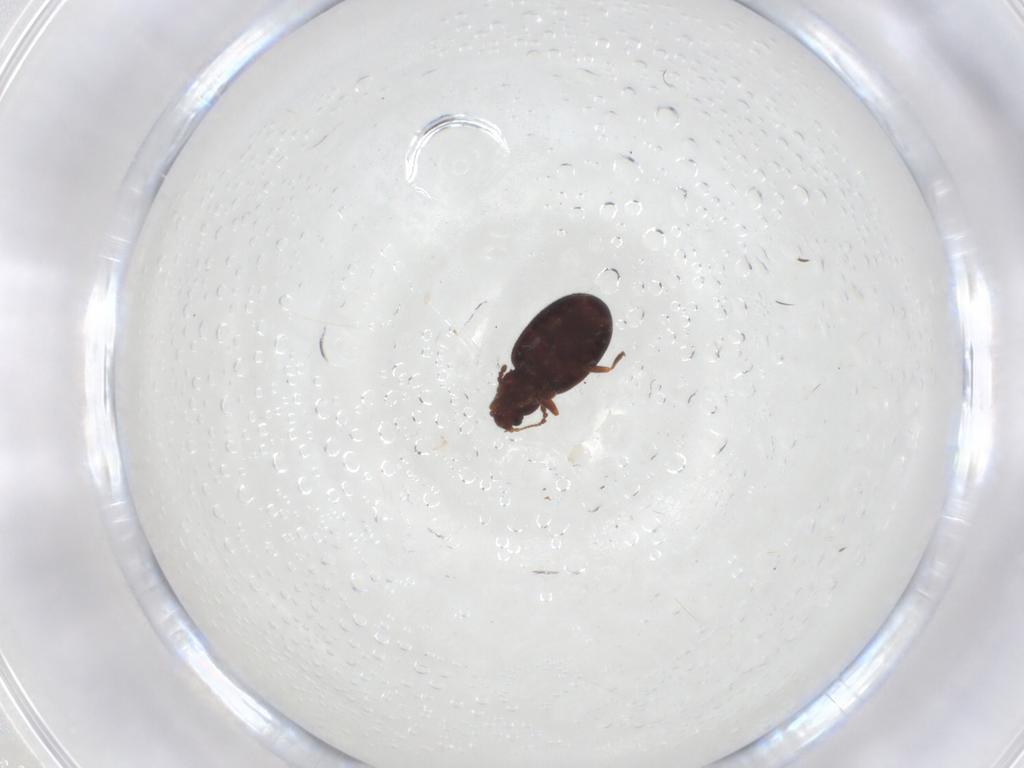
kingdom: Animalia
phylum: Arthropoda
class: Insecta
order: Coleoptera
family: Latridiidae
